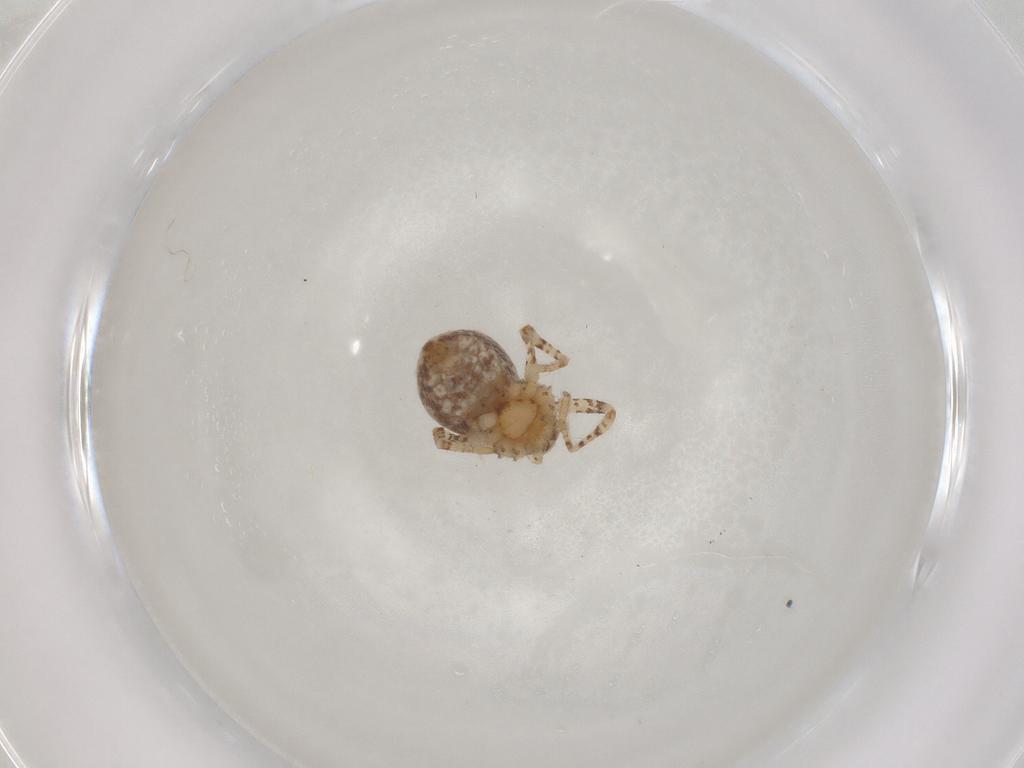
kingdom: Animalia
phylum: Arthropoda
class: Arachnida
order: Araneae
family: Philodromidae
